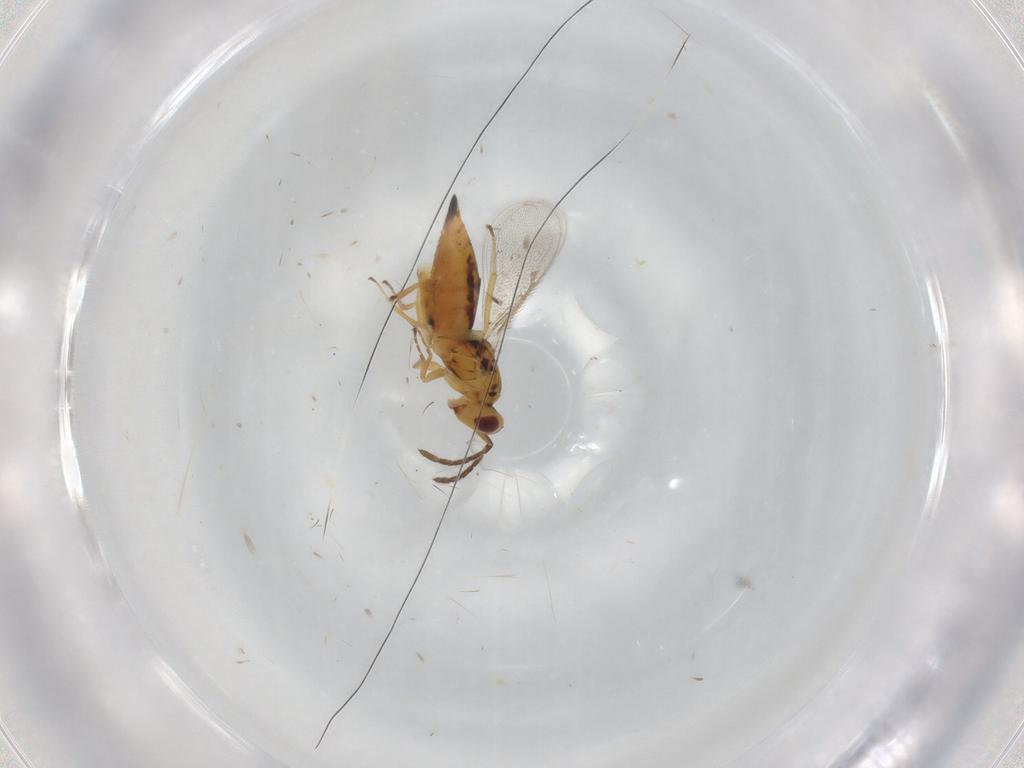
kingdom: Animalia
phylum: Arthropoda
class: Insecta
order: Hymenoptera
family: Eulophidae
